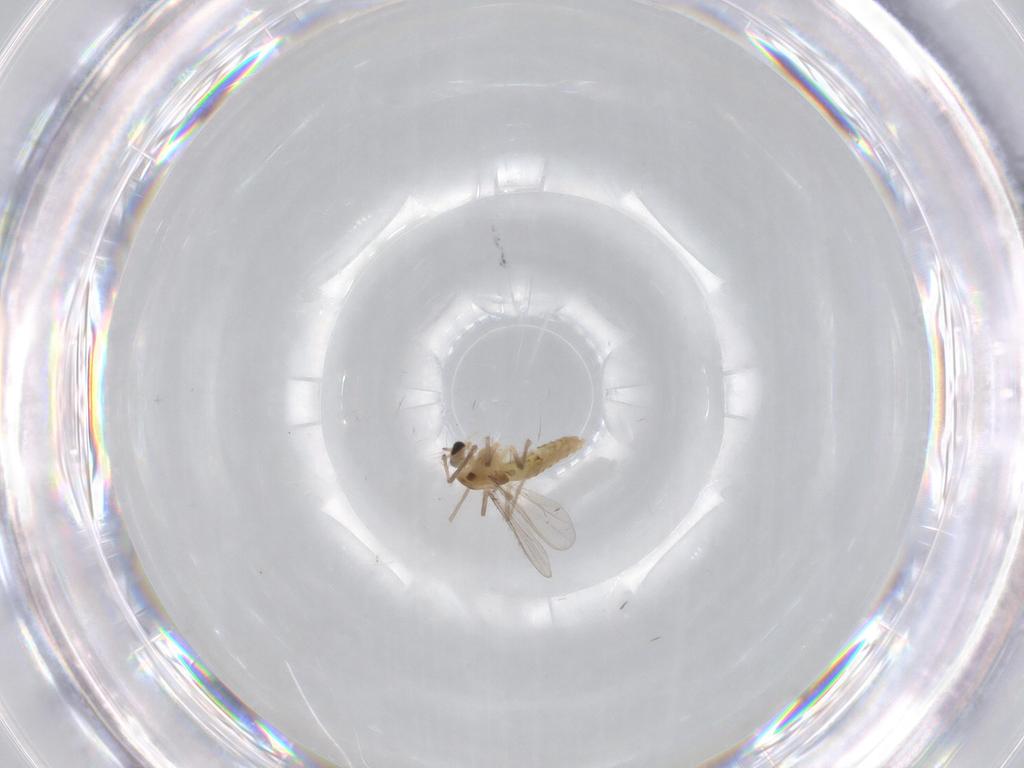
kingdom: Animalia
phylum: Arthropoda
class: Insecta
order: Diptera
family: Chironomidae
